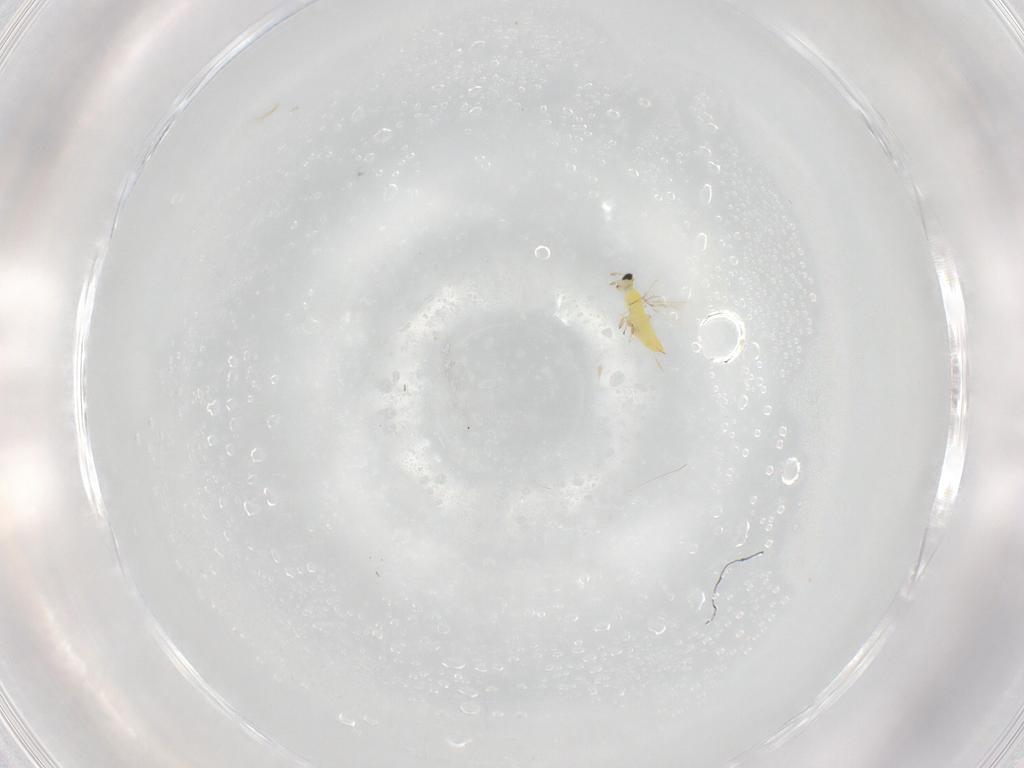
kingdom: Animalia
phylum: Arthropoda
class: Insecta
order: Hymenoptera
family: Trichogrammatidae
